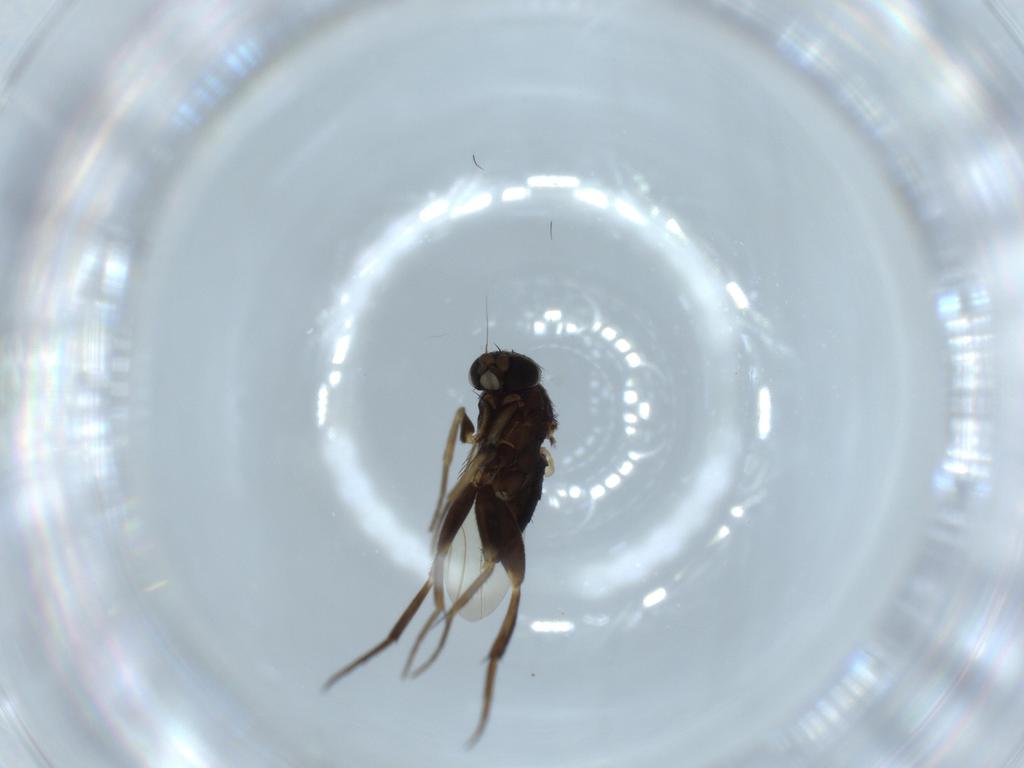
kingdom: Animalia
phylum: Arthropoda
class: Insecta
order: Diptera
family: Phoridae
